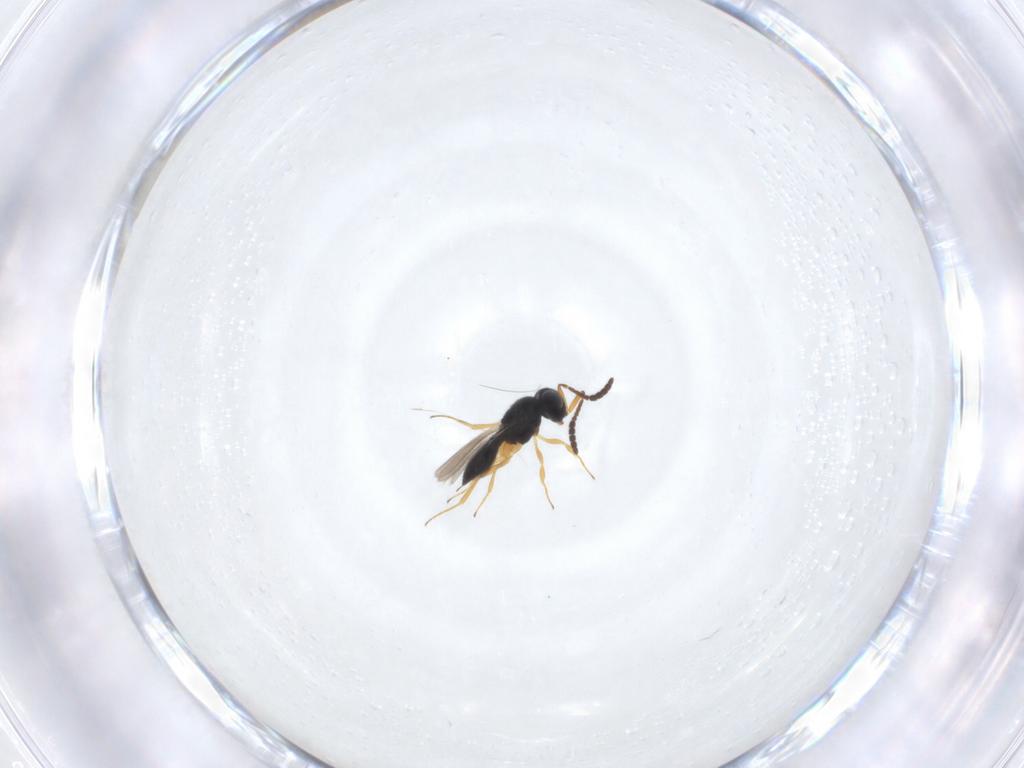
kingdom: Animalia
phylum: Arthropoda
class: Insecta
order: Hymenoptera
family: Scelionidae
